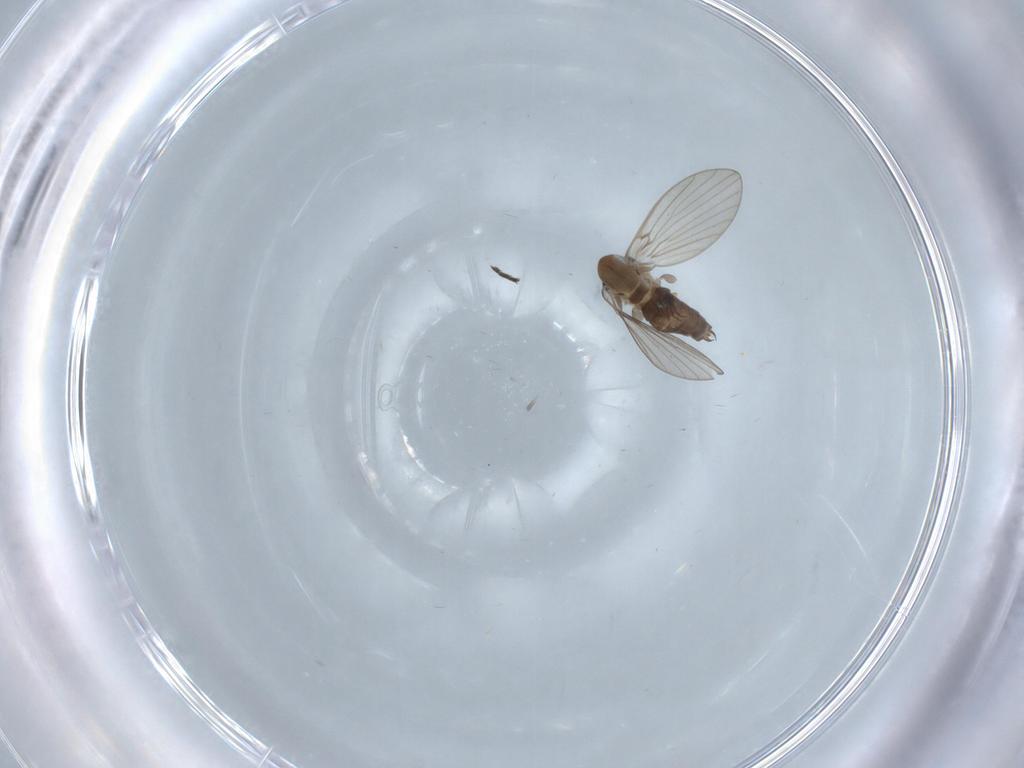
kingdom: Animalia
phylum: Arthropoda
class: Insecta
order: Diptera
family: Psychodidae
